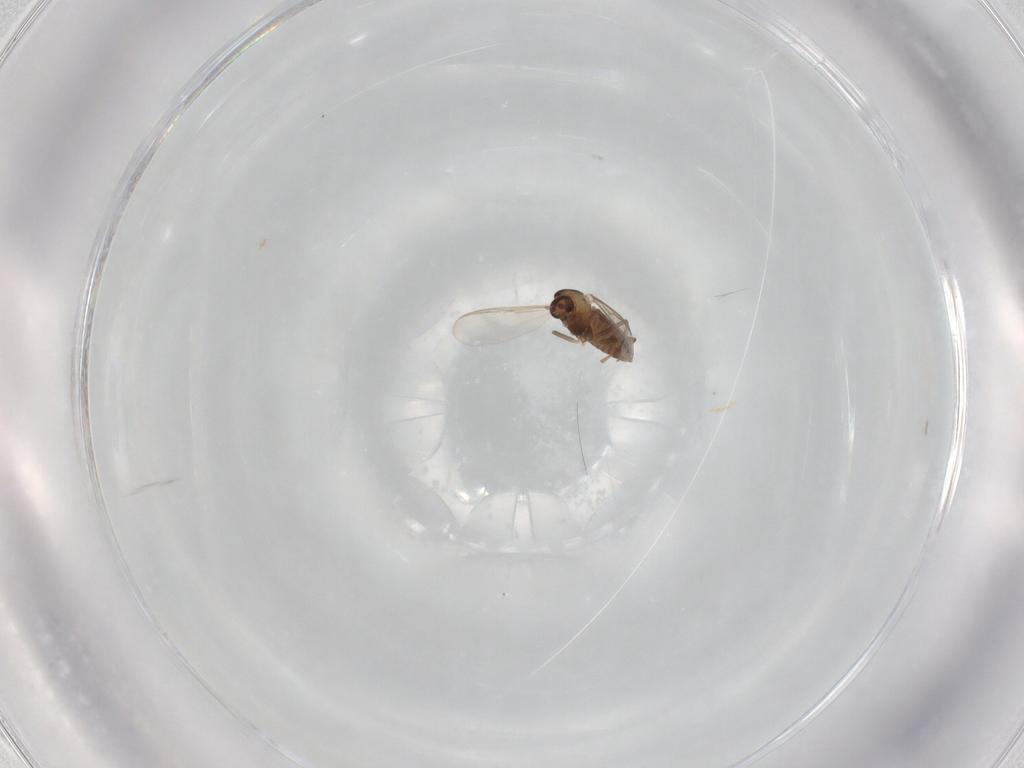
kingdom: Animalia
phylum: Arthropoda
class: Insecta
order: Diptera
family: Chironomidae
